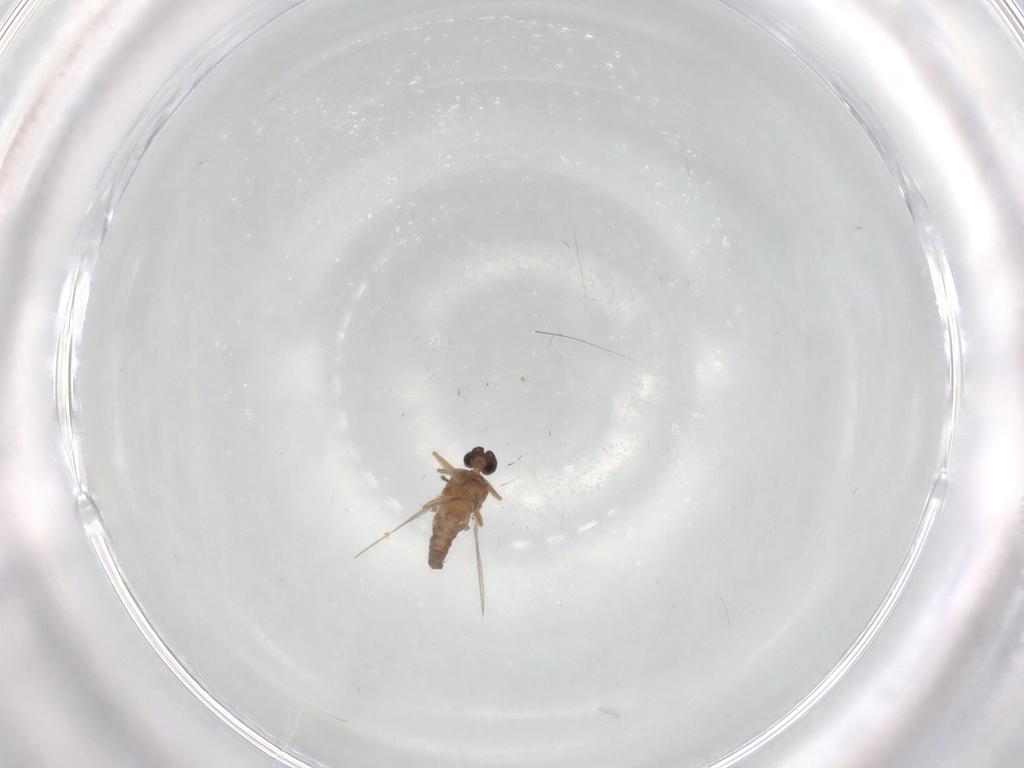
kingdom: Animalia
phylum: Arthropoda
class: Insecta
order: Diptera
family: Ceratopogonidae
